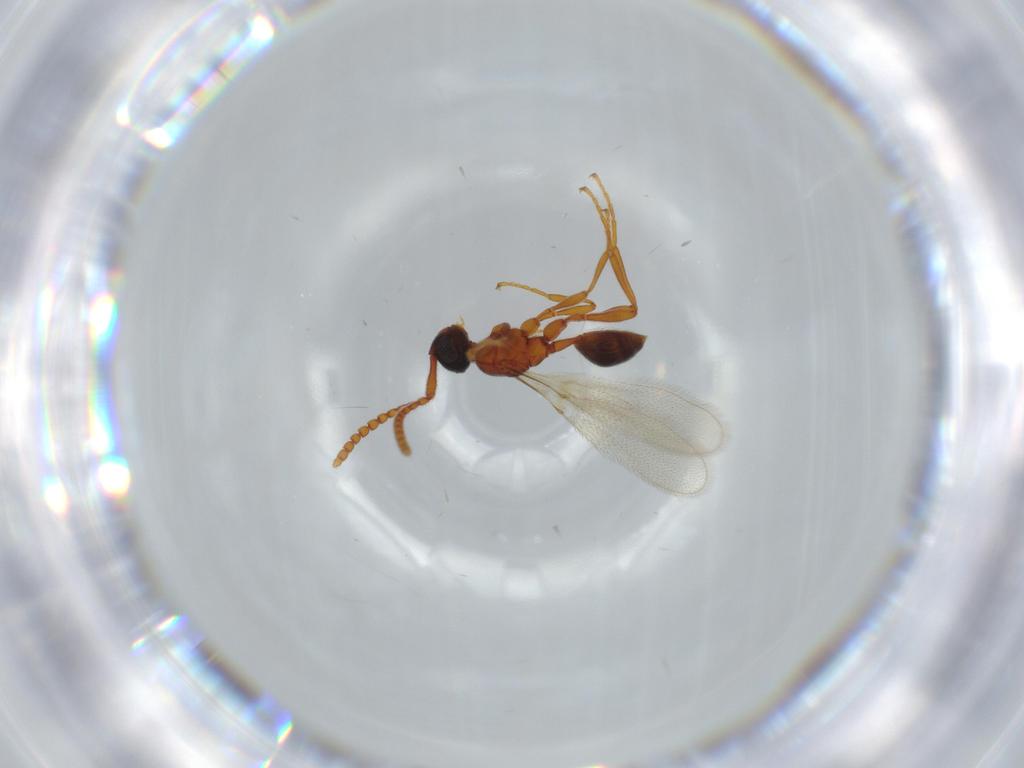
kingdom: Animalia
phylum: Arthropoda
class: Insecta
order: Hymenoptera
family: Diapriidae
